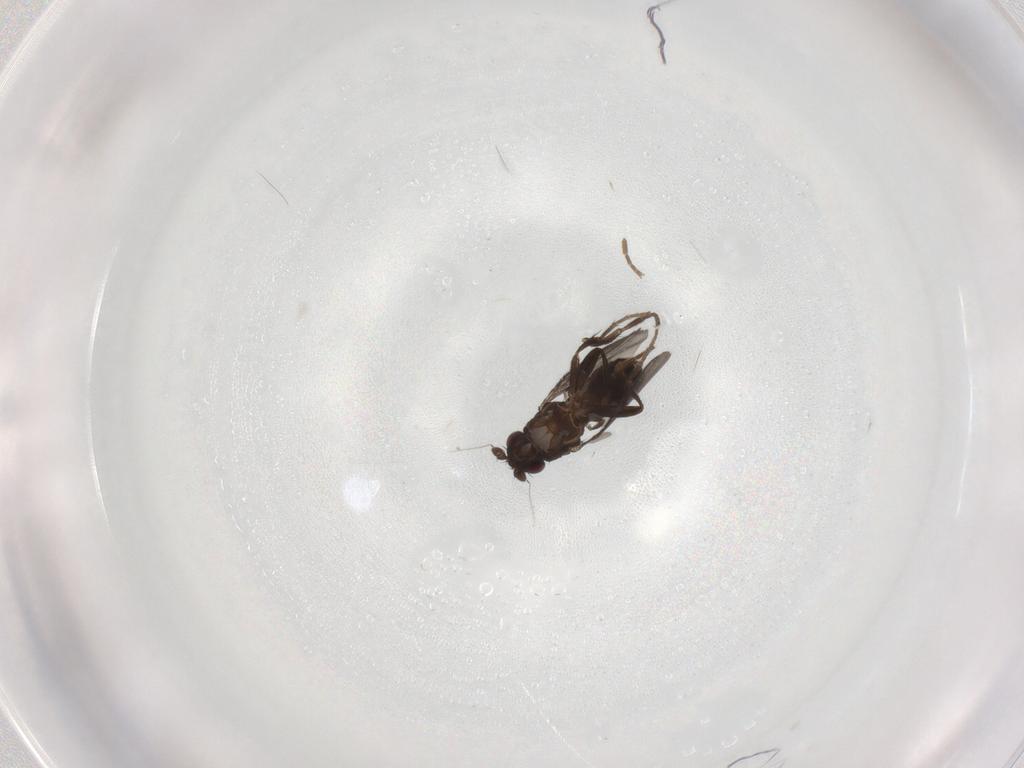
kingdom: Animalia
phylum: Arthropoda
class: Insecta
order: Diptera
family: Sphaeroceridae
